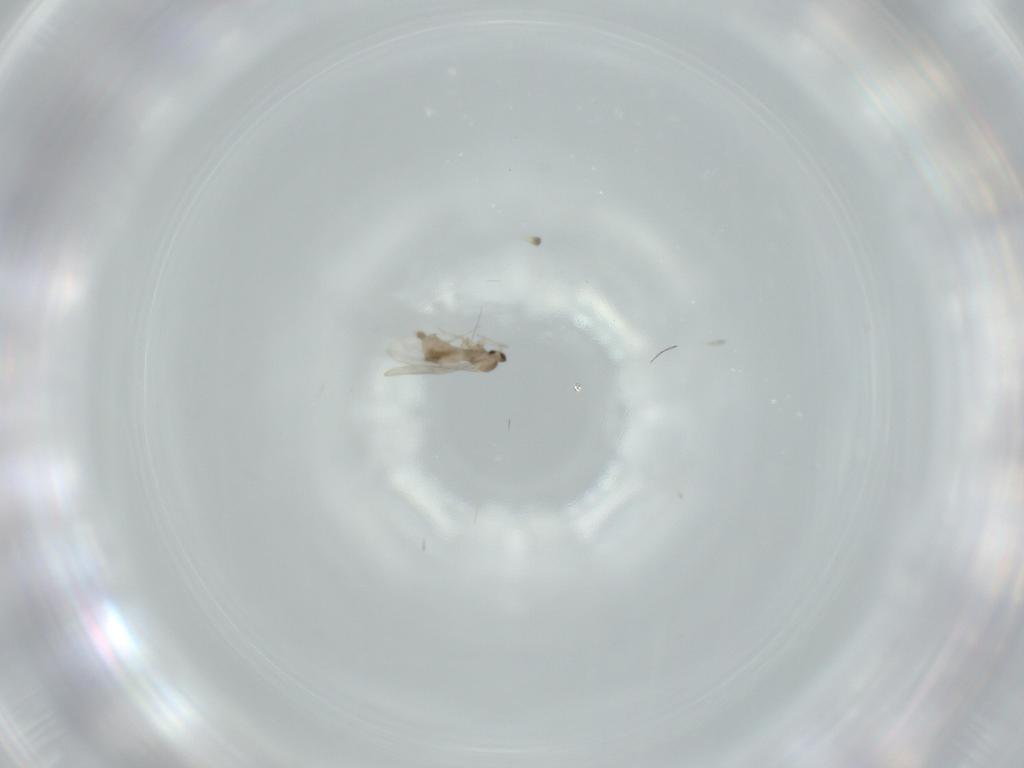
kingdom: Animalia
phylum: Arthropoda
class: Insecta
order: Diptera
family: Cecidomyiidae
